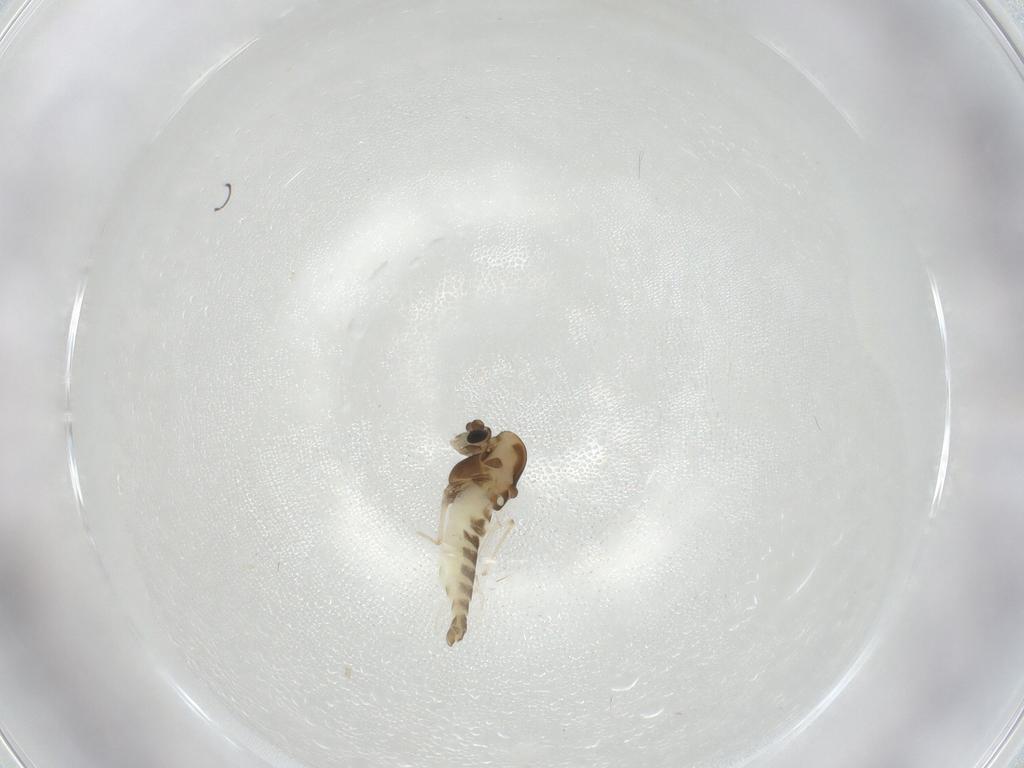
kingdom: Animalia
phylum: Arthropoda
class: Insecta
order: Diptera
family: Chironomidae
